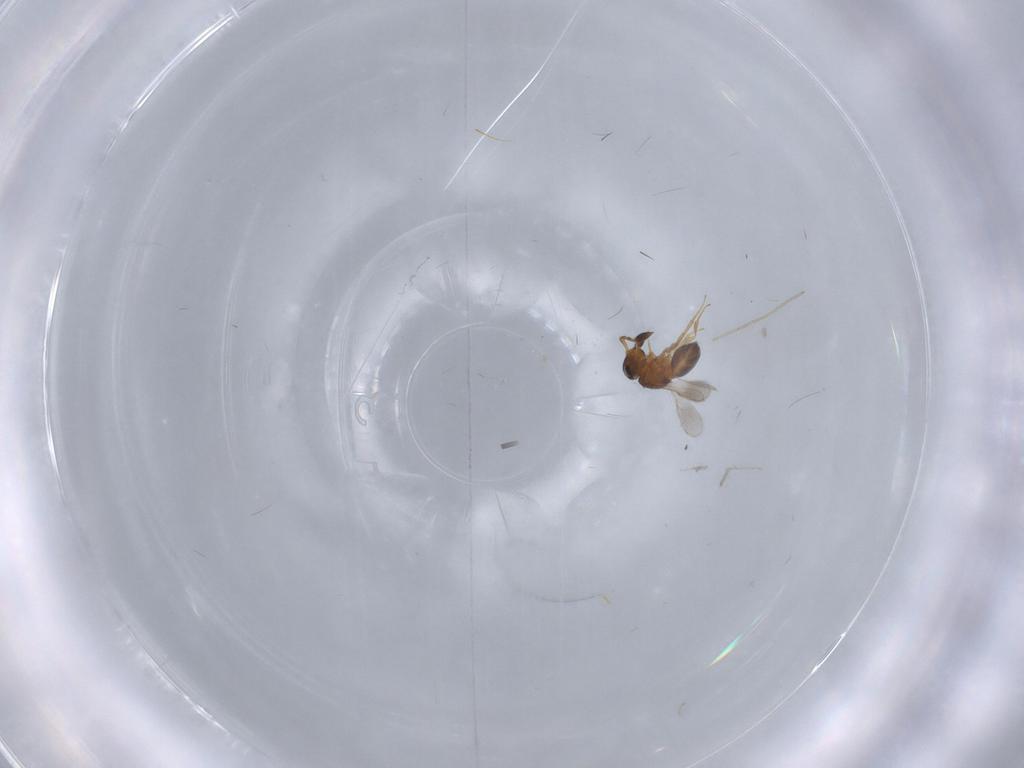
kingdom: Animalia
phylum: Arthropoda
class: Insecta
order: Hymenoptera
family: Scelionidae
